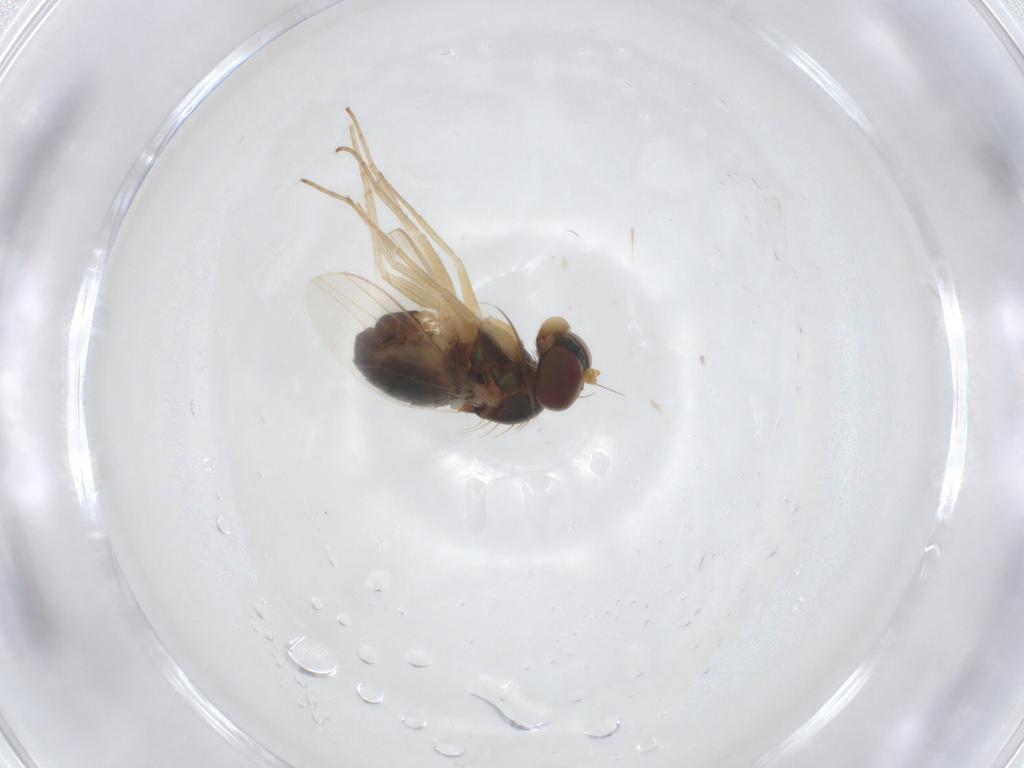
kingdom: Animalia
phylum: Arthropoda
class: Insecta
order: Diptera
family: Dolichopodidae
